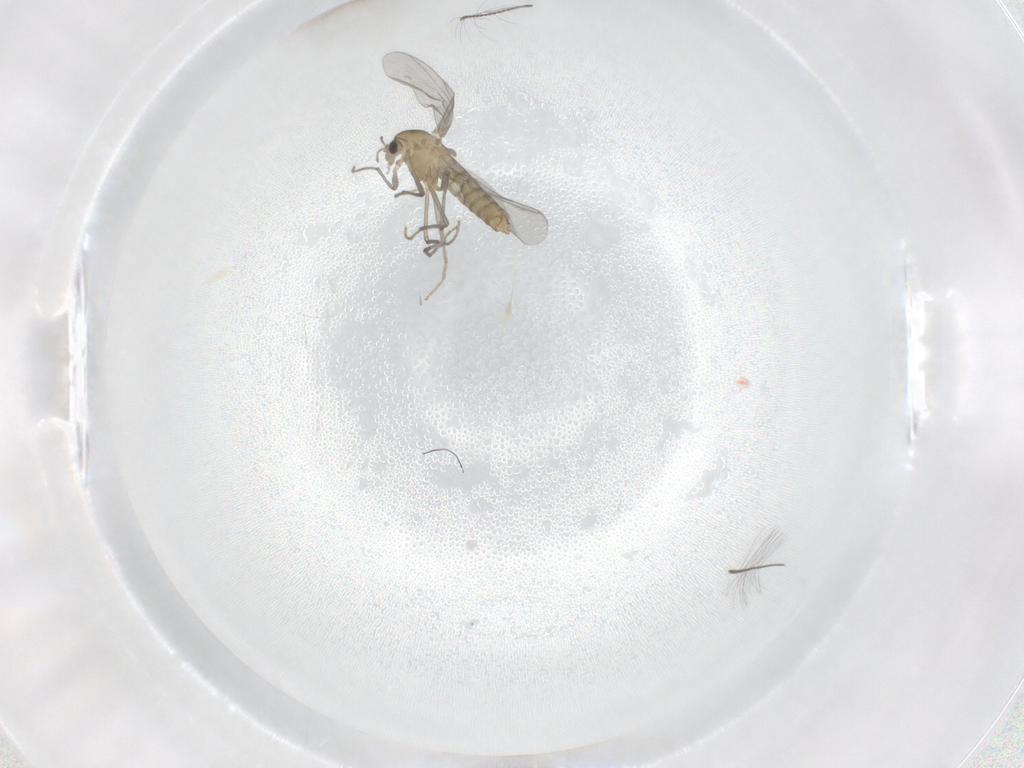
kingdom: Animalia
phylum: Arthropoda
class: Insecta
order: Diptera
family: Chironomidae
